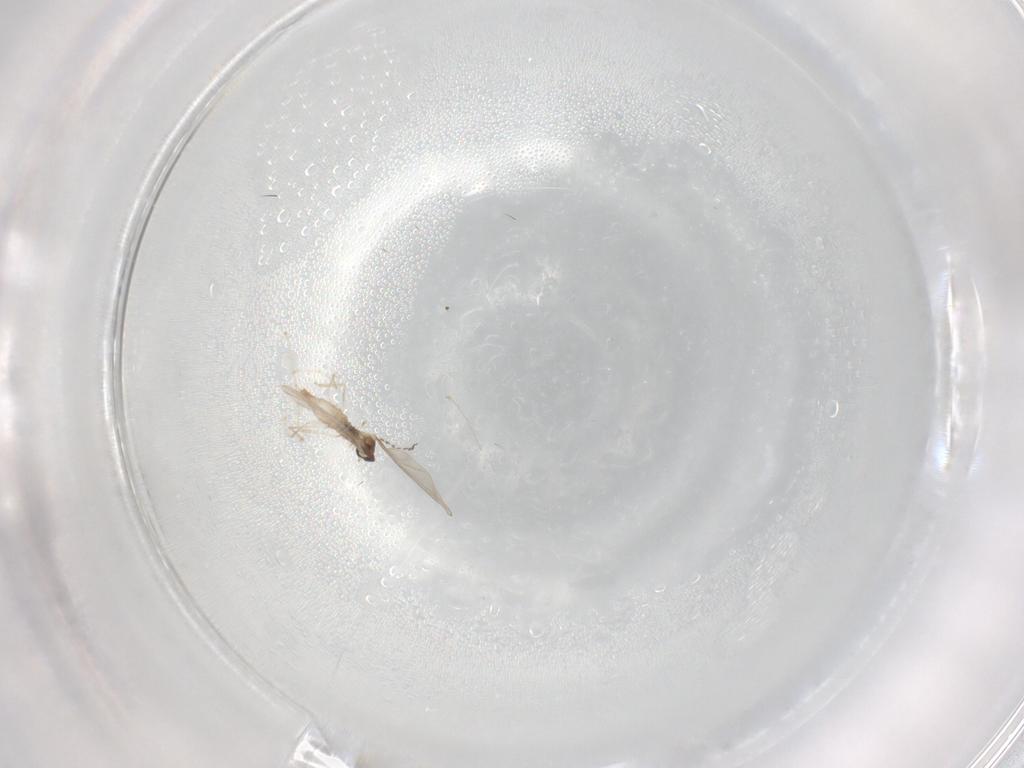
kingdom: Animalia
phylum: Arthropoda
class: Insecta
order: Diptera
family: Cecidomyiidae
